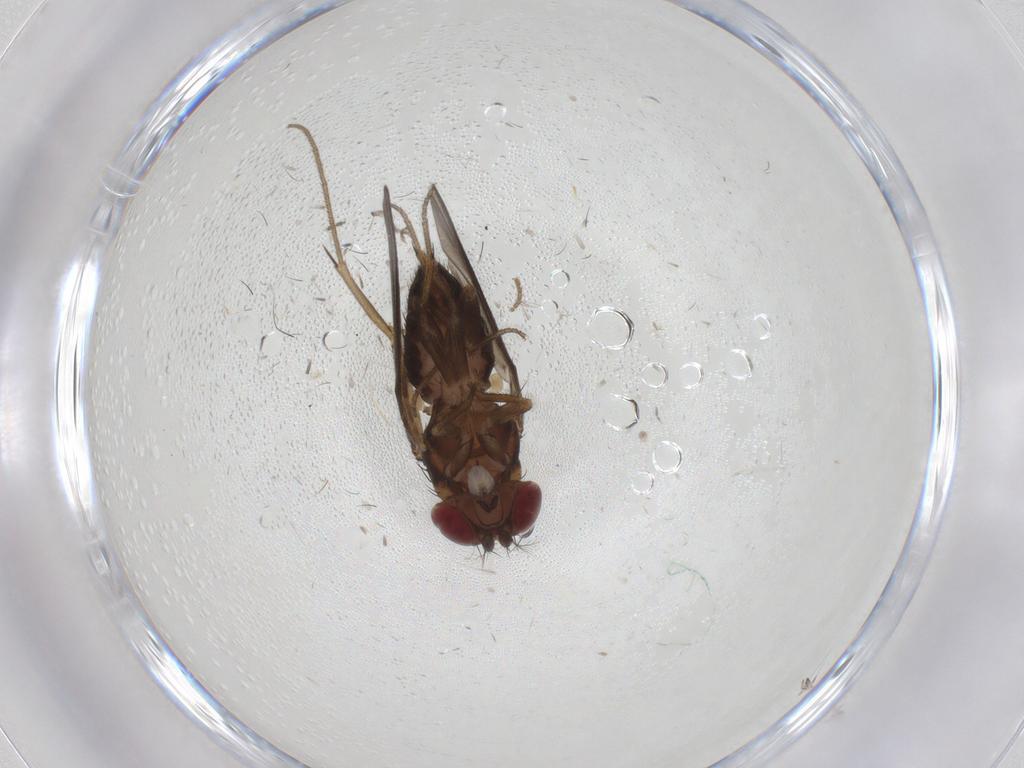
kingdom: Animalia
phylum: Arthropoda
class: Insecta
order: Diptera
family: Drosophilidae
